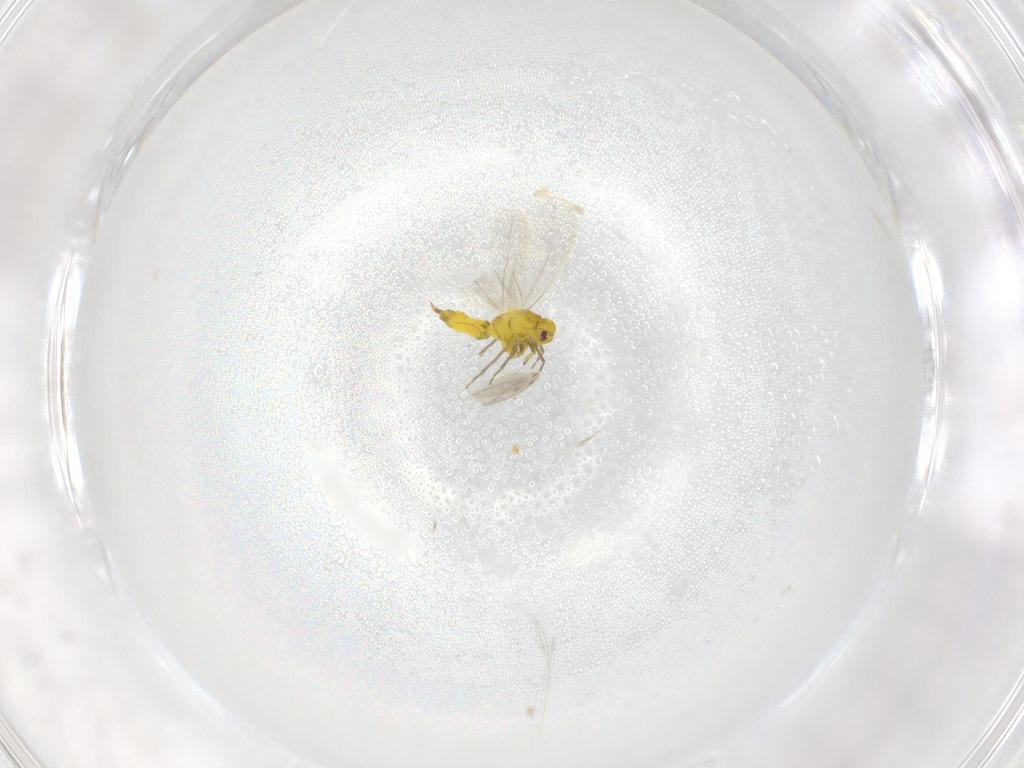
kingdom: Animalia
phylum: Arthropoda
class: Insecta
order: Hemiptera
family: Aleyrodidae
